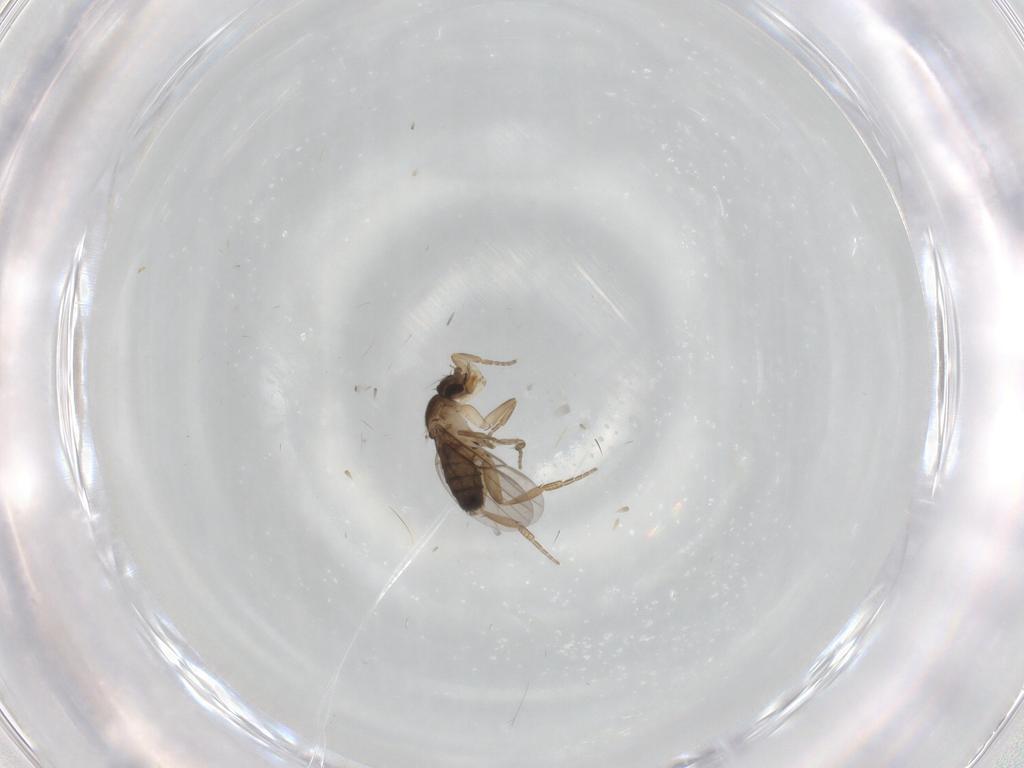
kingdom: Animalia
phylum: Arthropoda
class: Insecta
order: Diptera
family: Phoridae
